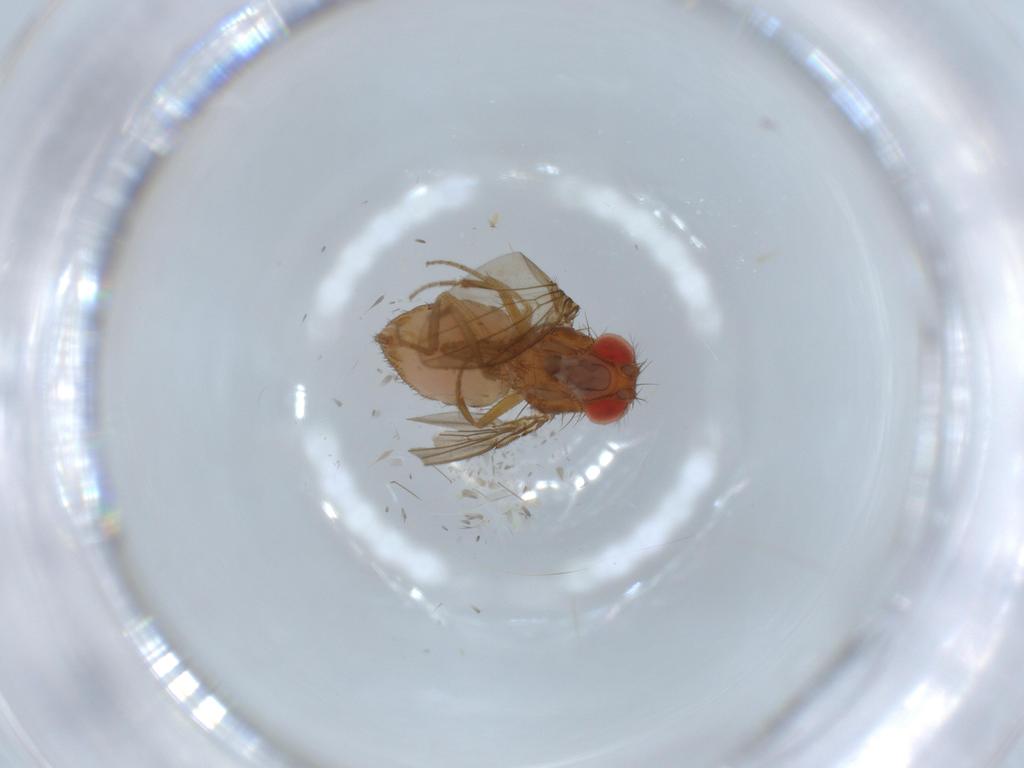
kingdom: Animalia
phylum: Arthropoda
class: Insecta
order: Diptera
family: Drosophilidae
